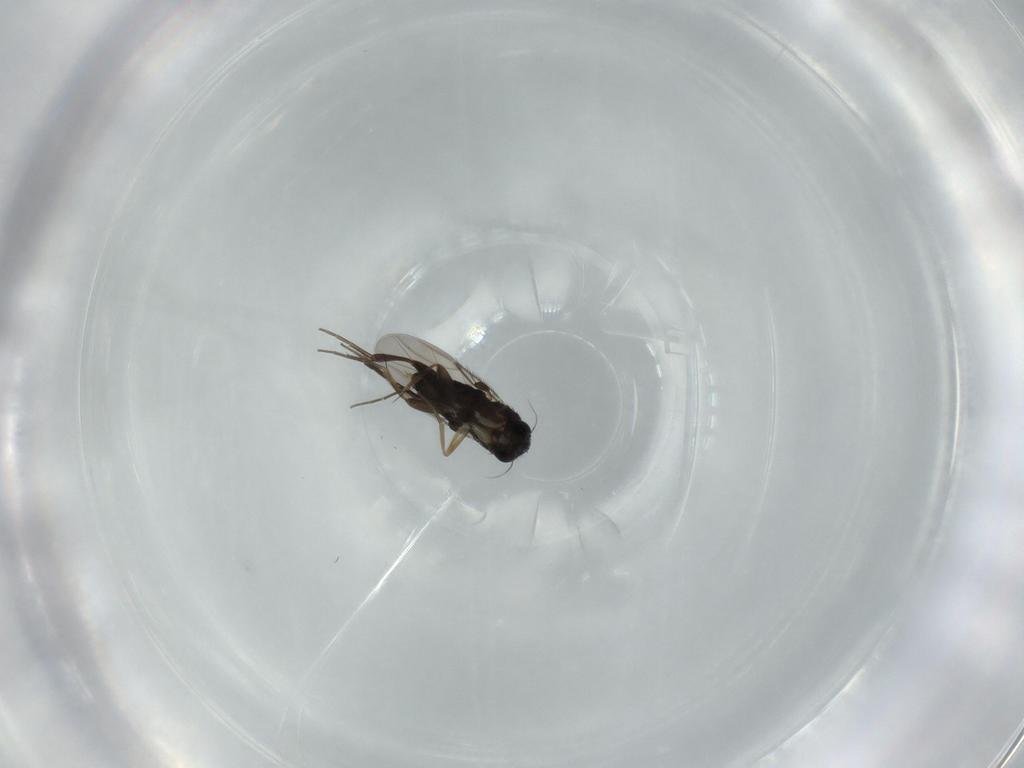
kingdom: Animalia
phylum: Arthropoda
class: Insecta
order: Diptera
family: Phoridae
